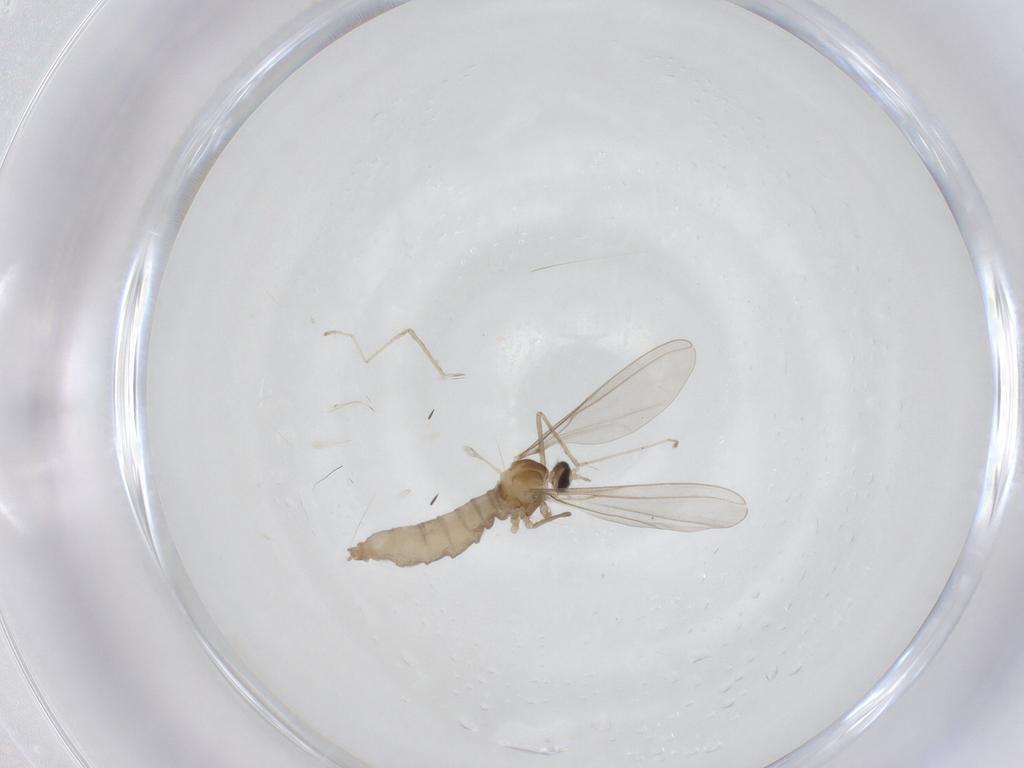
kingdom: Animalia
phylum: Arthropoda
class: Insecta
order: Diptera
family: Cecidomyiidae
